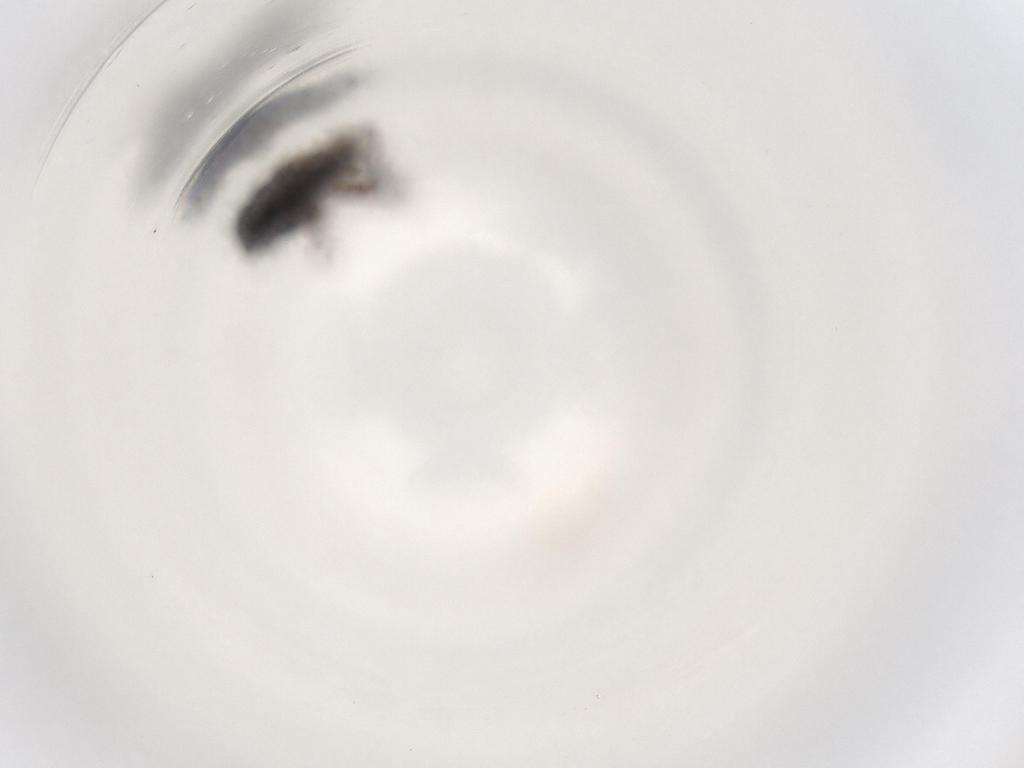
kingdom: Animalia
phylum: Arthropoda
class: Insecta
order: Diptera
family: Sphaeroceridae
